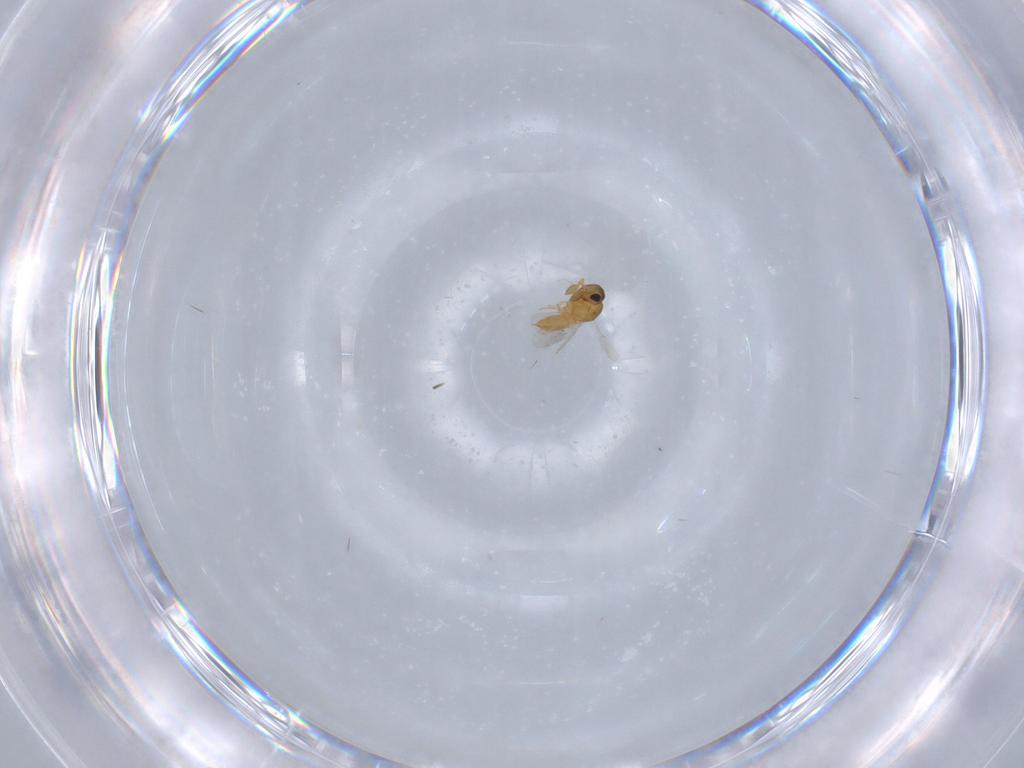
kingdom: Animalia
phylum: Arthropoda
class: Insecta
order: Hymenoptera
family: Scelionidae
